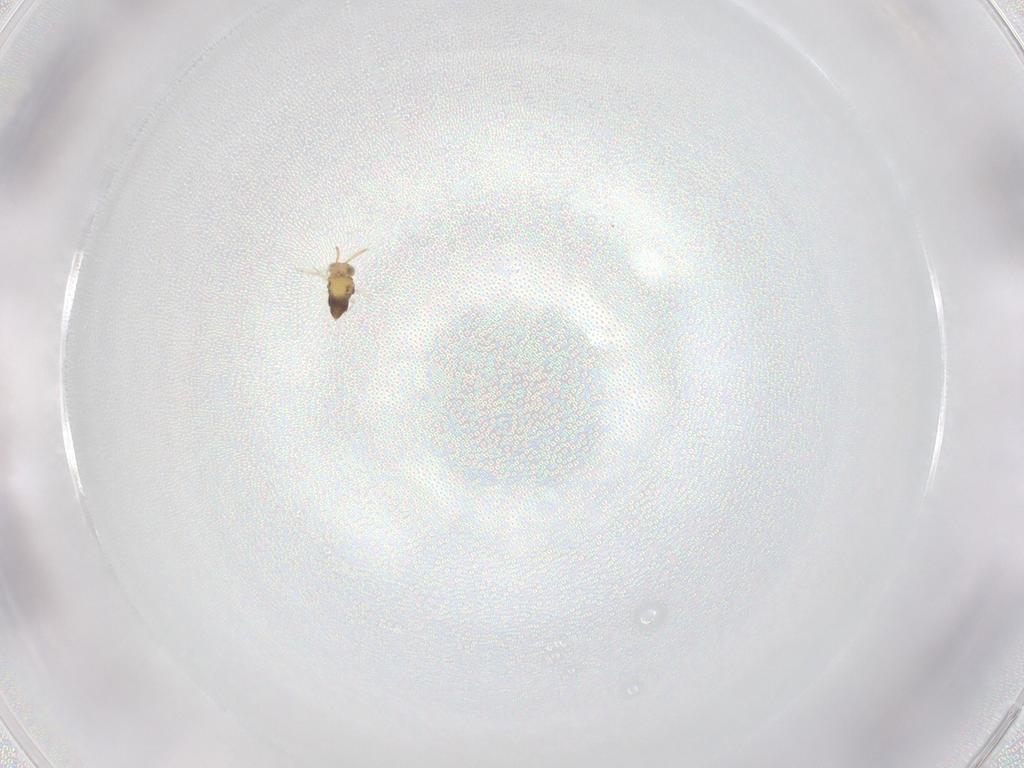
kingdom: Animalia
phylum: Arthropoda
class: Insecta
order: Hymenoptera
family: Aphelinidae
